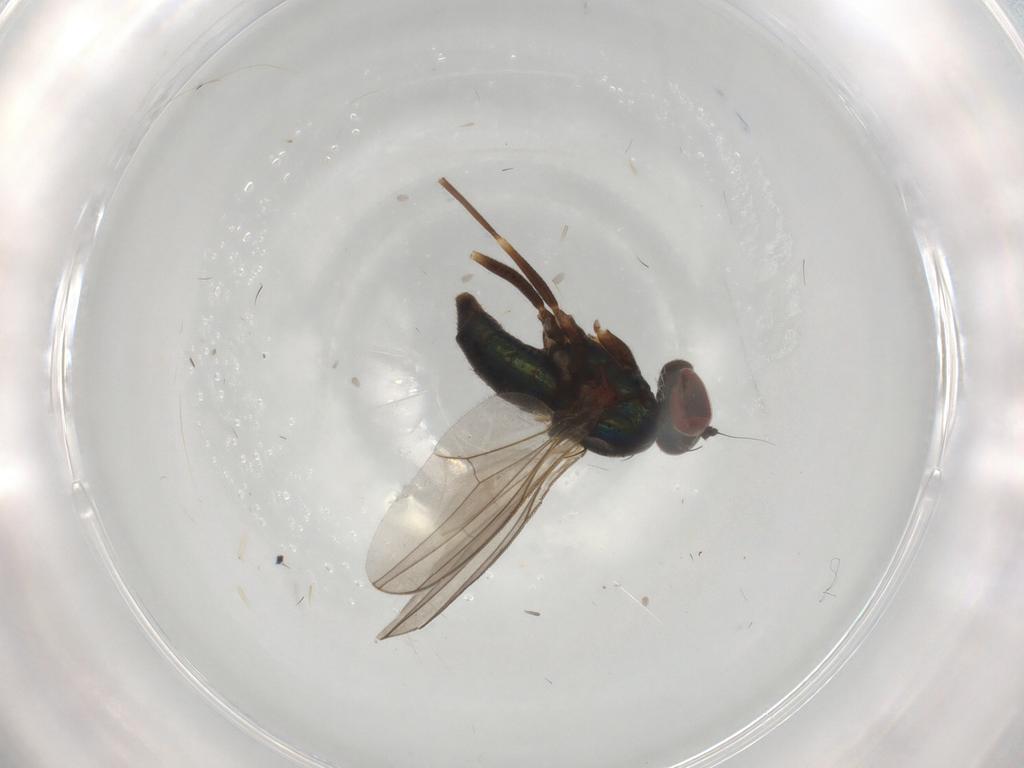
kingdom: Animalia
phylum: Arthropoda
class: Insecta
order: Diptera
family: Dolichopodidae
